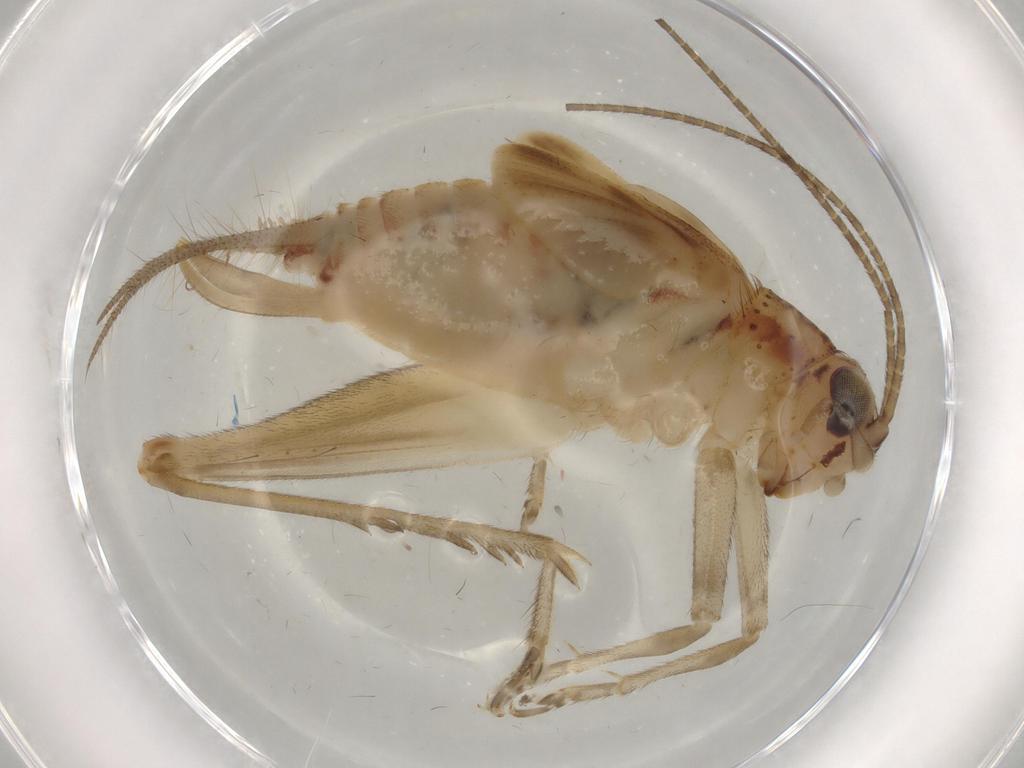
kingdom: Animalia
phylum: Arthropoda
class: Insecta
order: Orthoptera
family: Trigonidiidae
